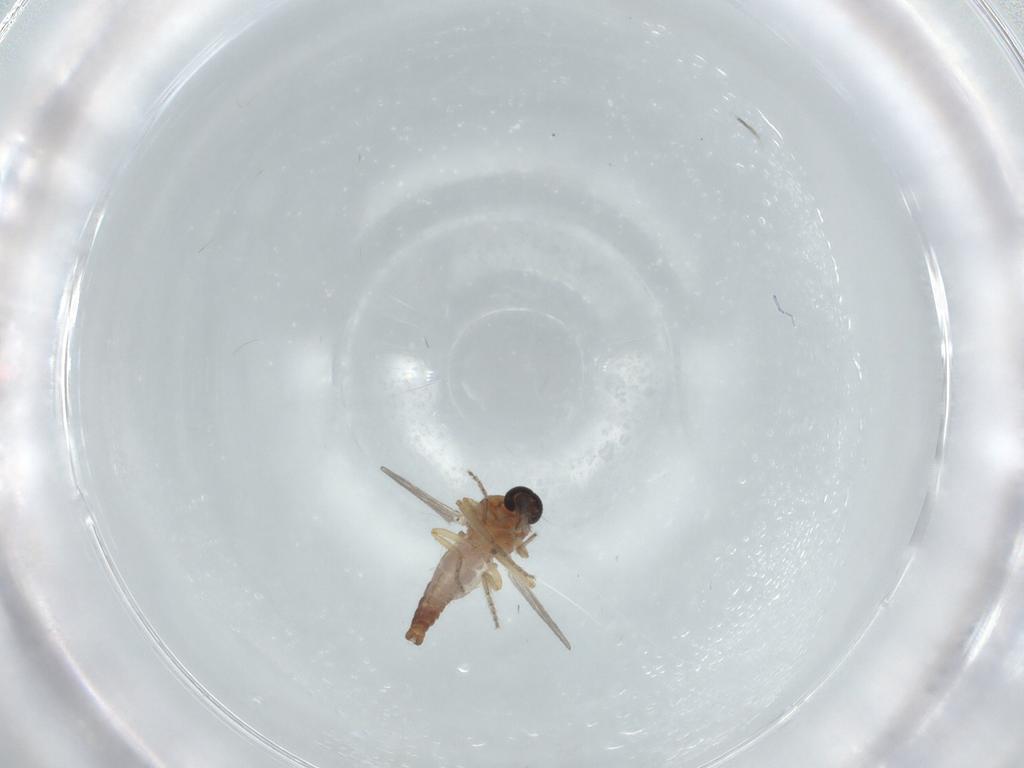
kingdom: Animalia
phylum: Arthropoda
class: Insecta
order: Diptera
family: Ceratopogonidae
